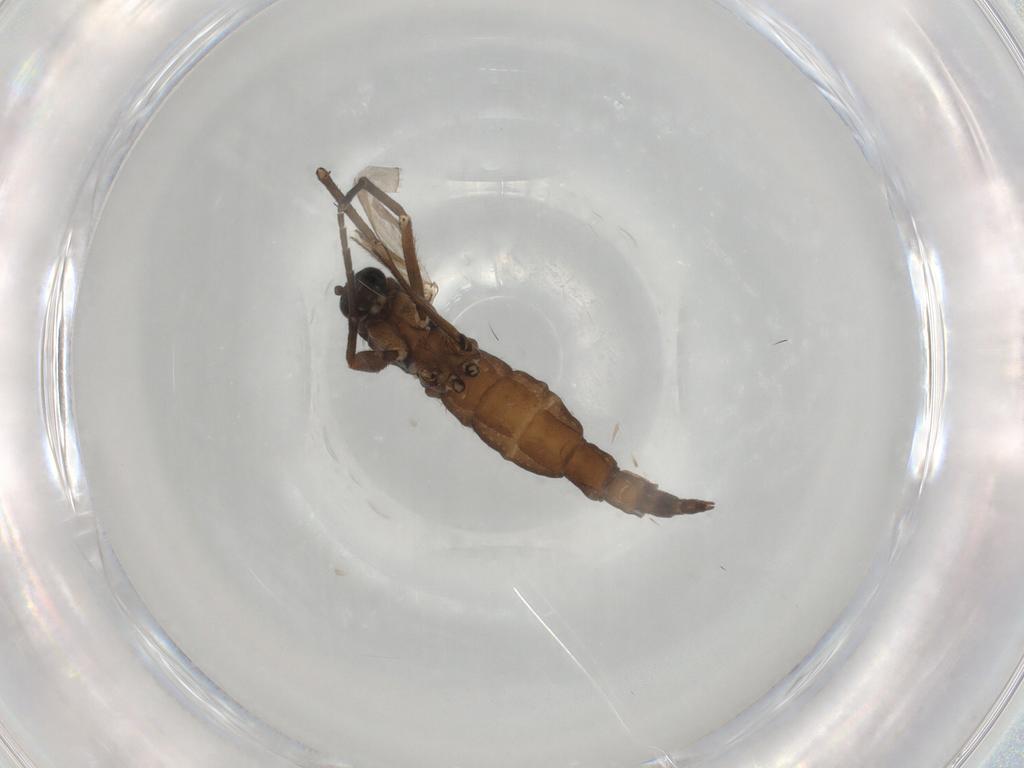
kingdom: Animalia
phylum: Arthropoda
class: Insecta
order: Diptera
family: Sciaridae
